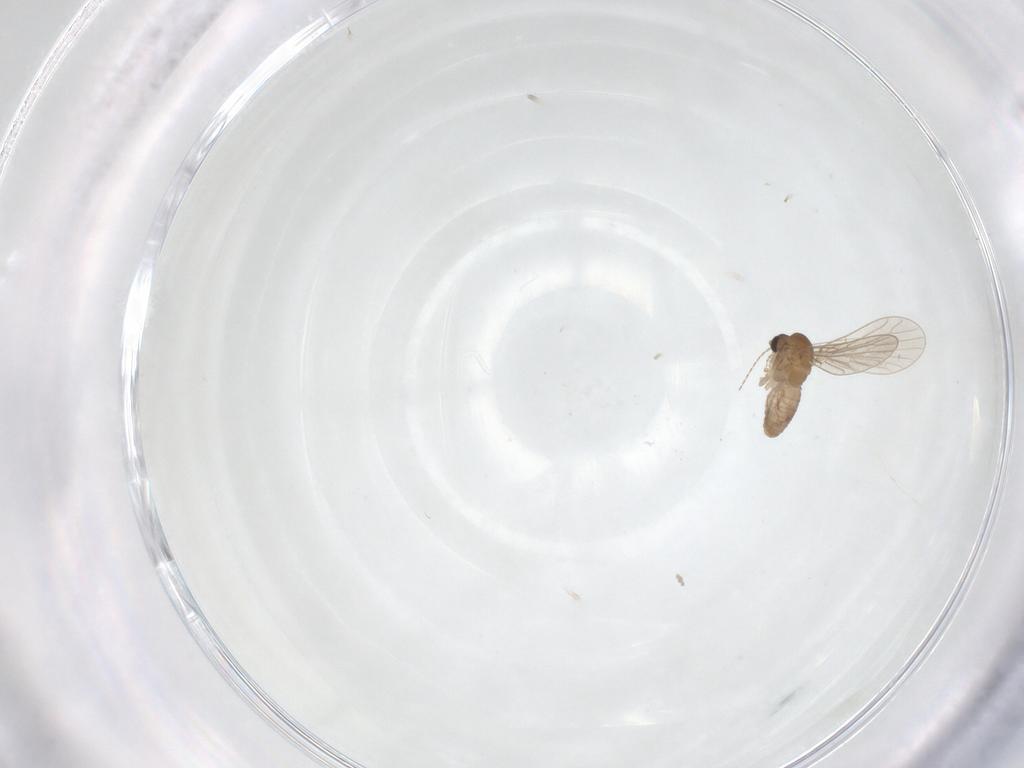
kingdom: Animalia
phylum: Arthropoda
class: Insecta
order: Diptera
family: Psychodidae
